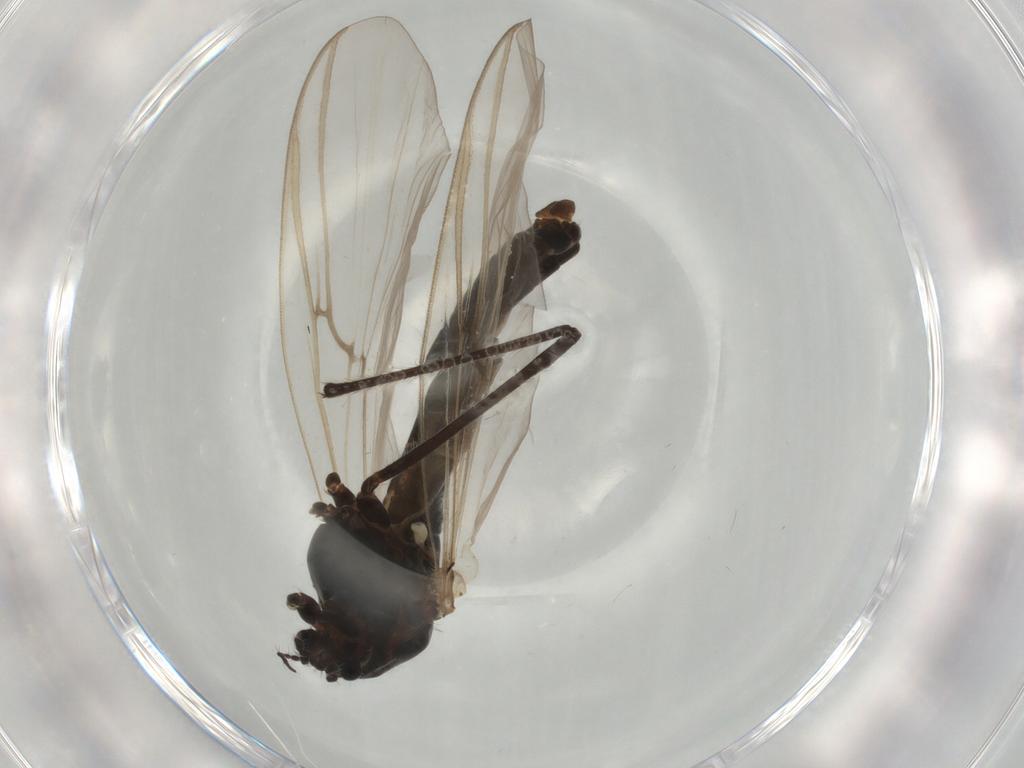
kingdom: Animalia
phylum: Arthropoda
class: Insecta
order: Diptera
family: Chironomidae
